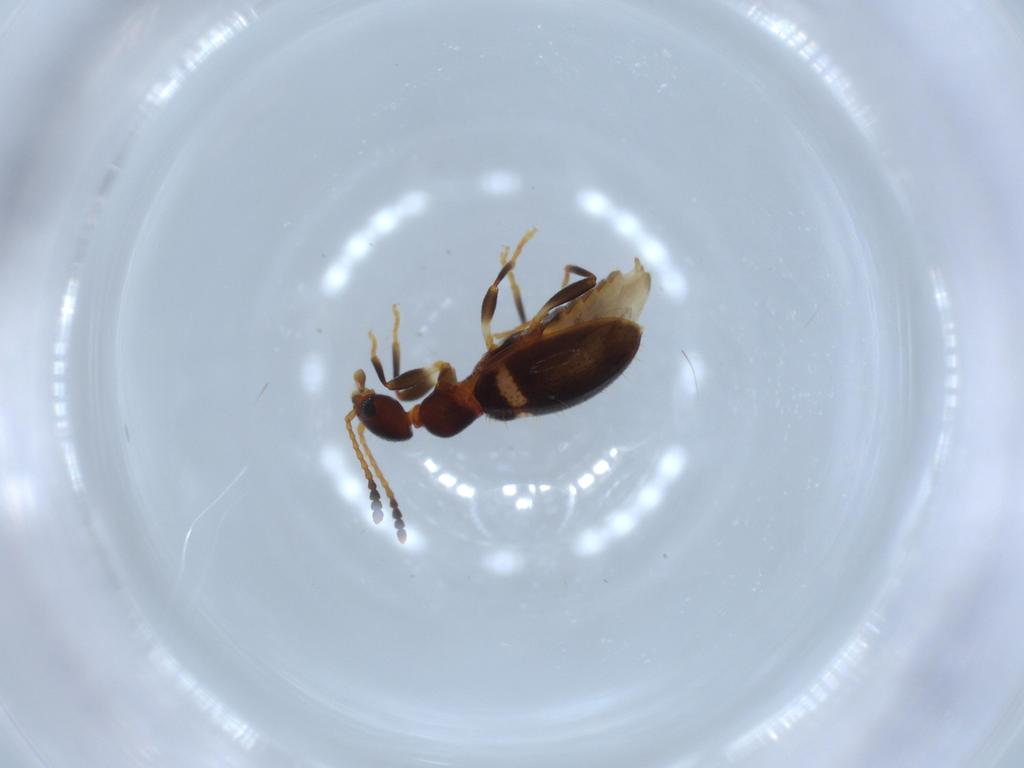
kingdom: Animalia
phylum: Arthropoda
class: Insecta
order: Coleoptera
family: Anthicidae
